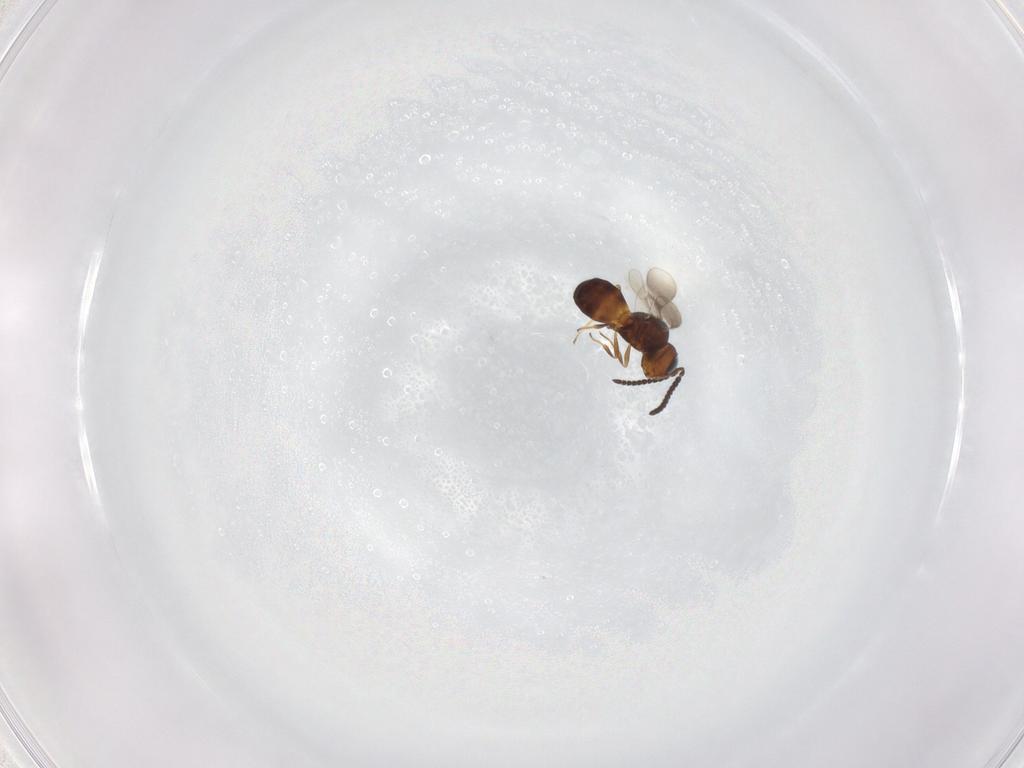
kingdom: Animalia
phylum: Arthropoda
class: Insecta
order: Hymenoptera
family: Scelionidae
